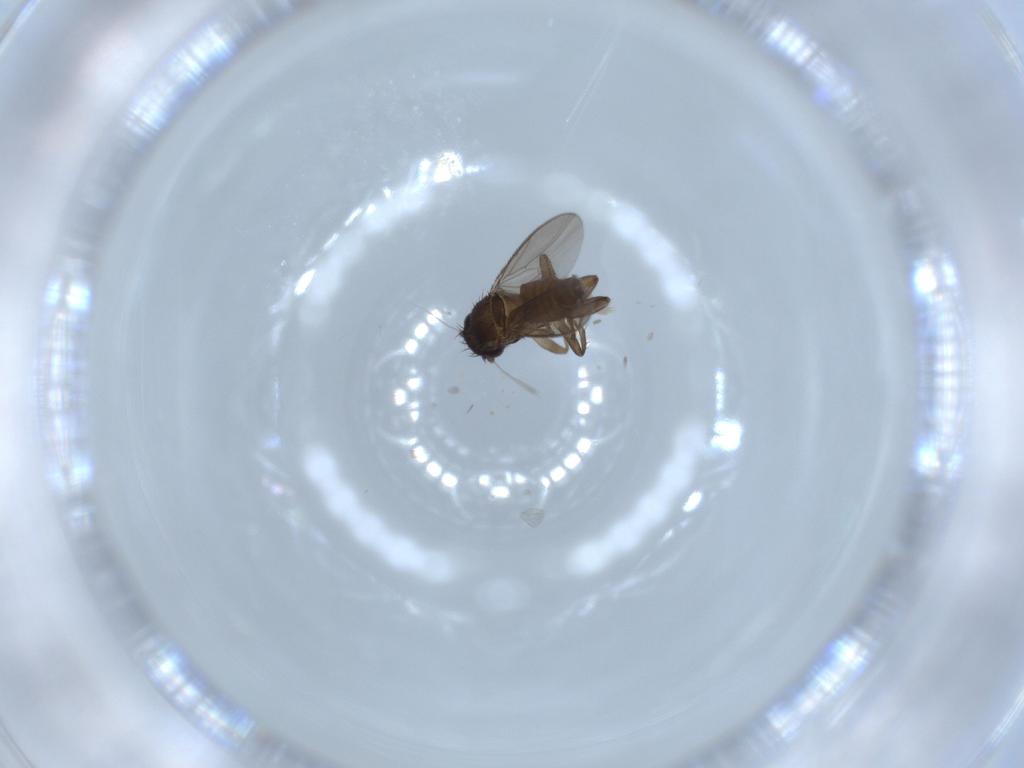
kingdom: Animalia
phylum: Arthropoda
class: Insecta
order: Diptera
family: Sphaeroceridae
